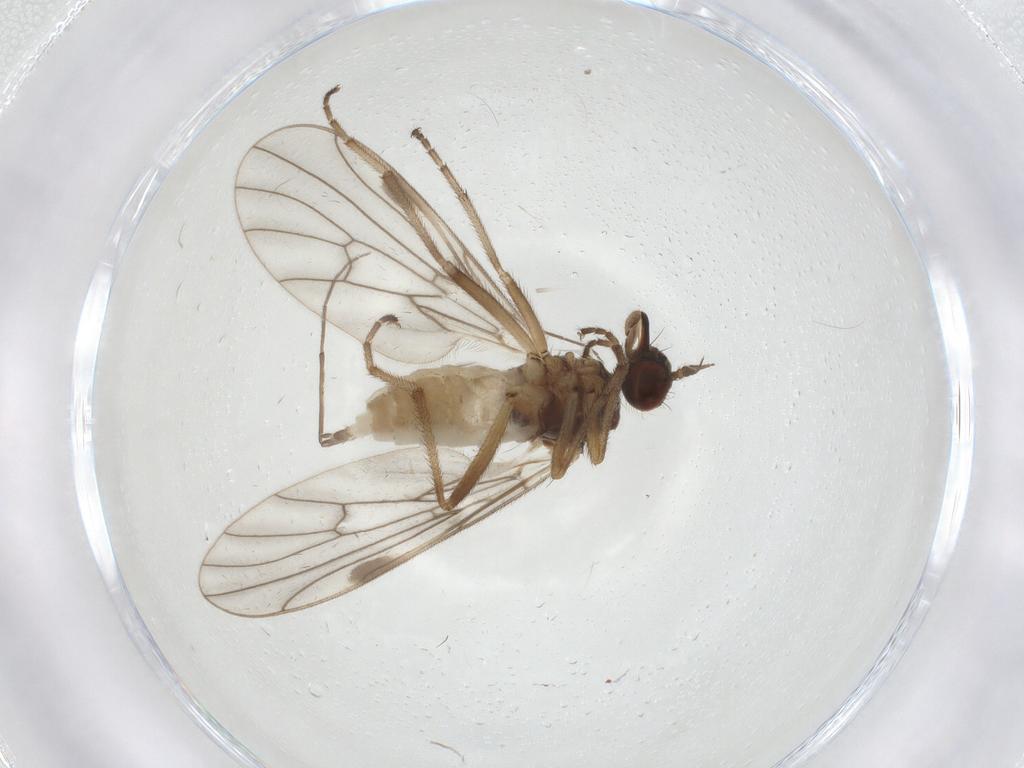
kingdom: Animalia
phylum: Arthropoda
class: Insecta
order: Diptera
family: Empididae
